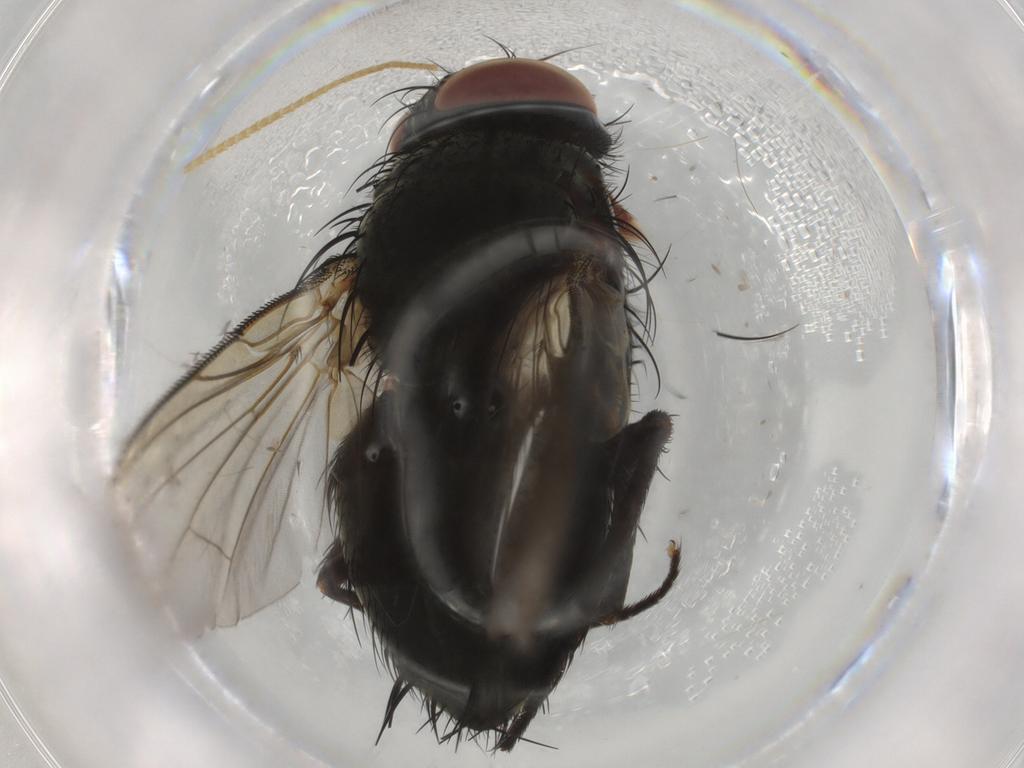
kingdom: Animalia
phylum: Arthropoda
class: Insecta
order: Diptera
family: Tachinidae
